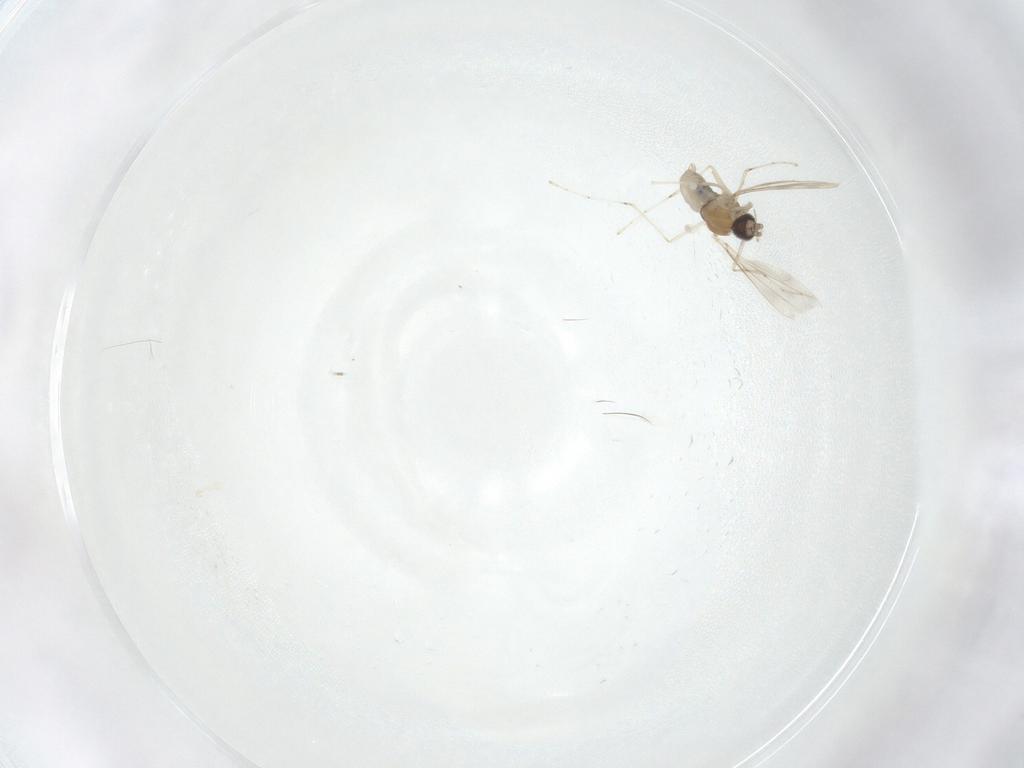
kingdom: Animalia
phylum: Arthropoda
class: Insecta
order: Diptera
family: Cecidomyiidae
